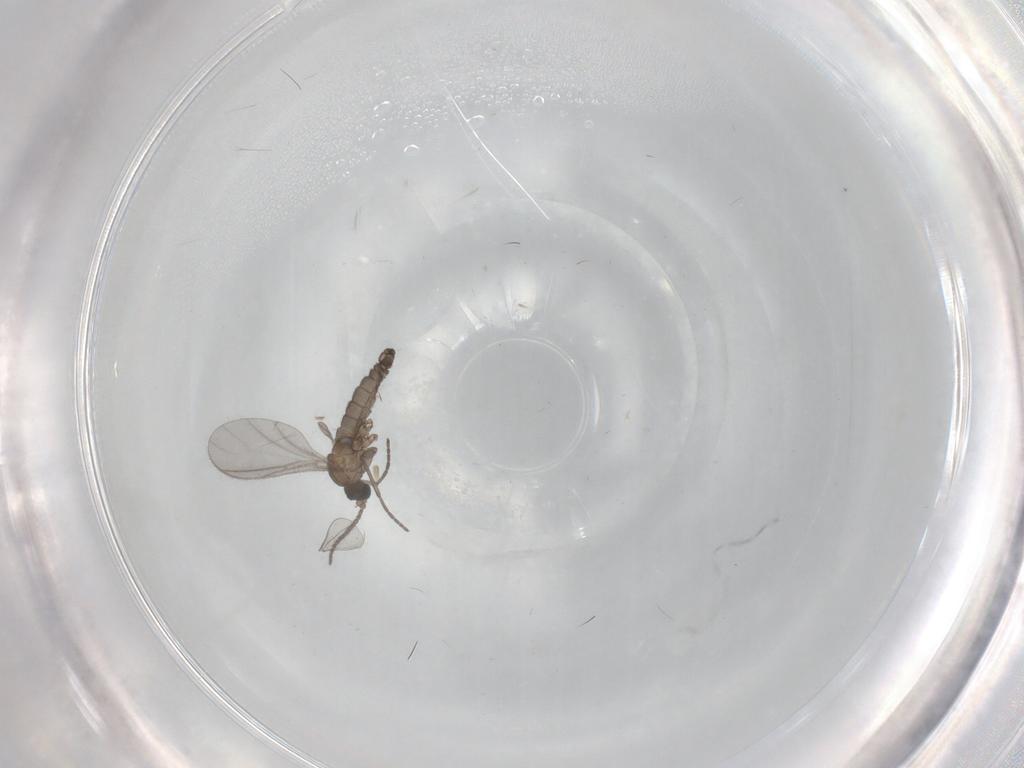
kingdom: Animalia
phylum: Arthropoda
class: Insecta
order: Diptera
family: Sciaridae
